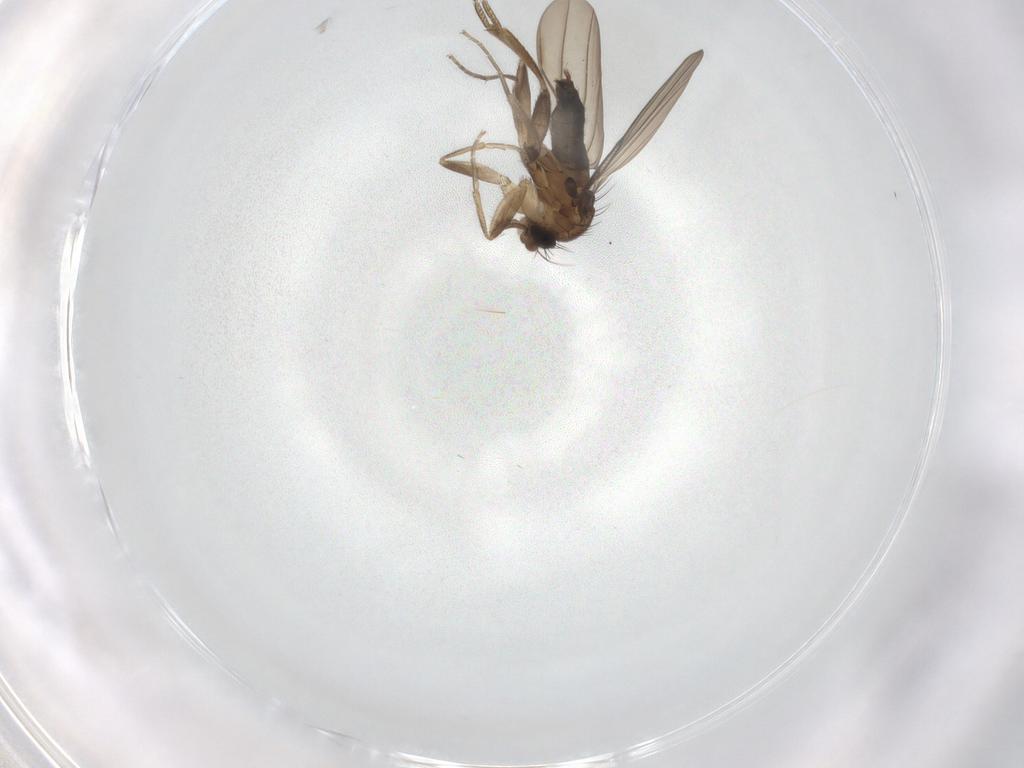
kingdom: Animalia
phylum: Arthropoda
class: Insecta
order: Diptera
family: Phoridae
